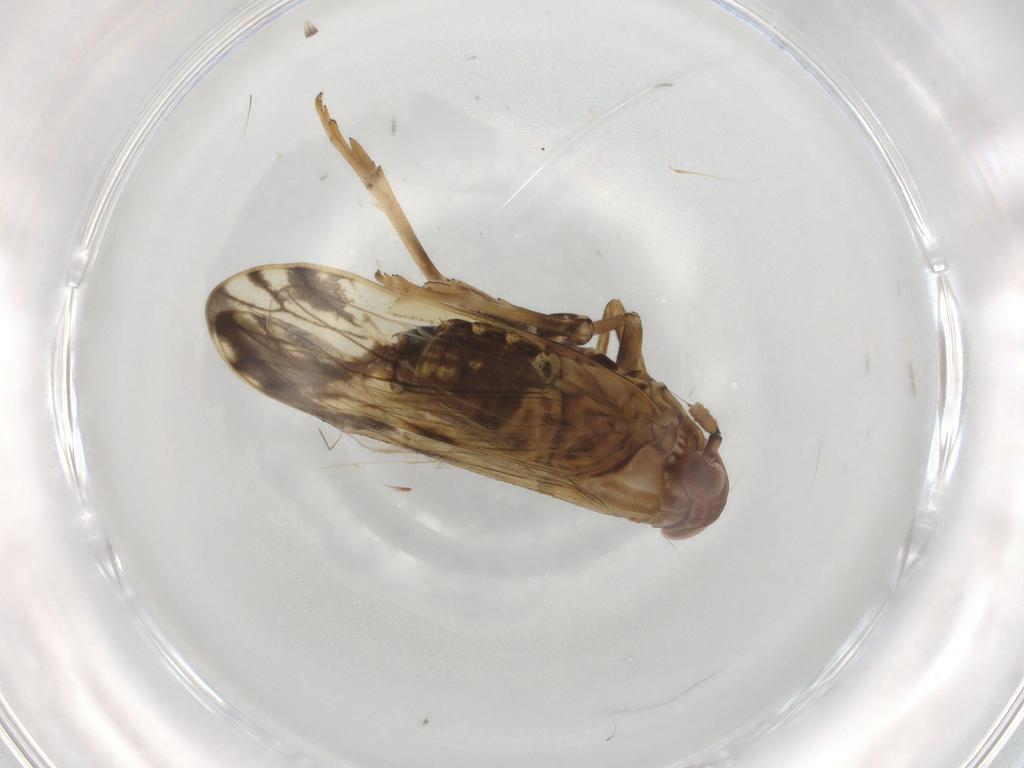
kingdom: Animalia
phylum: Arthropoda
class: Insecta
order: Hemiptera
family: Delphacidae
